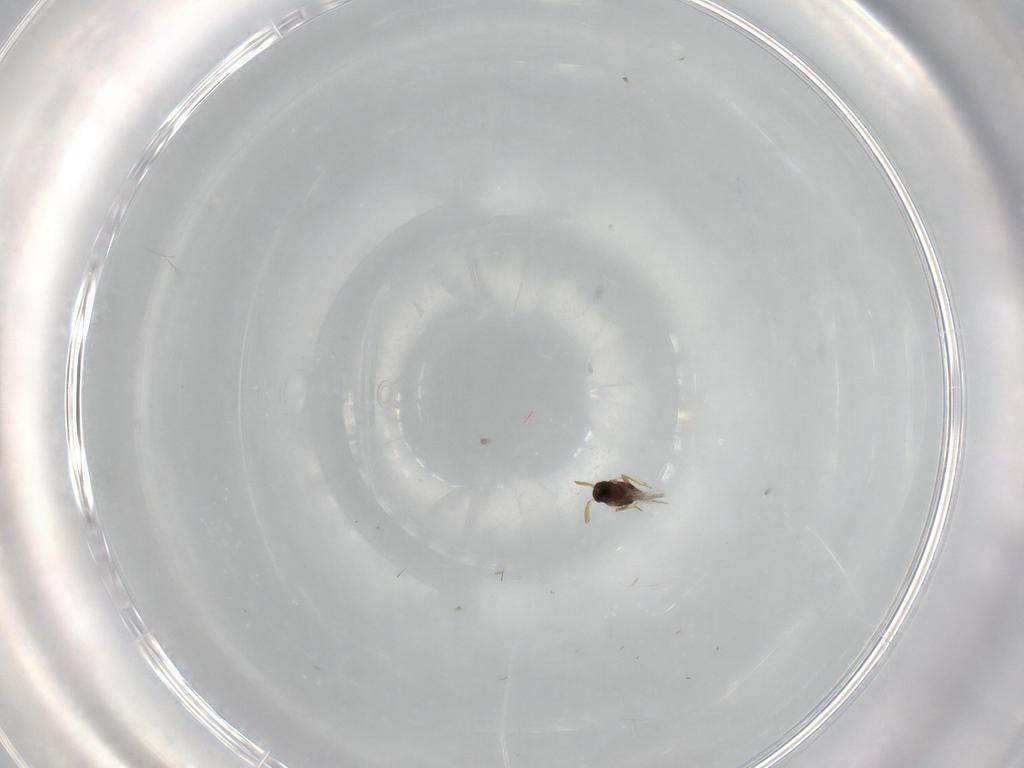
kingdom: Animalia
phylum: Arthropoda
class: Insecta
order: Hymenoptera
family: Encyrtidae
